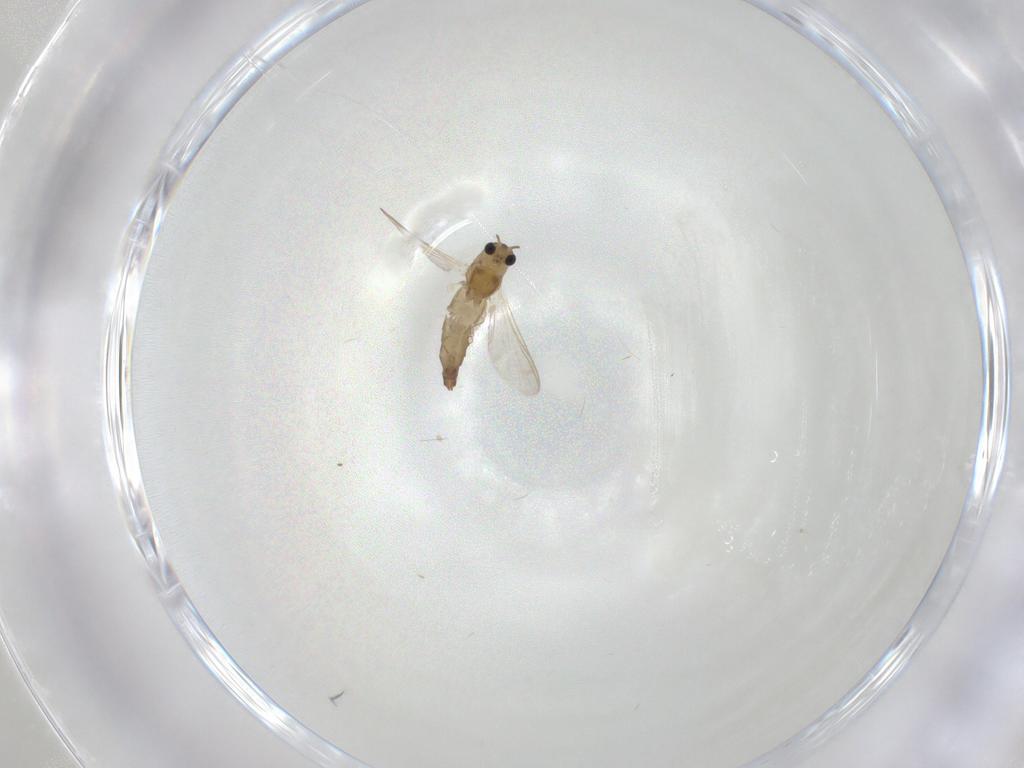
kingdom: Animalia
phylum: Arthropoda
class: Insecta
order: Diptera
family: Chironomidae
